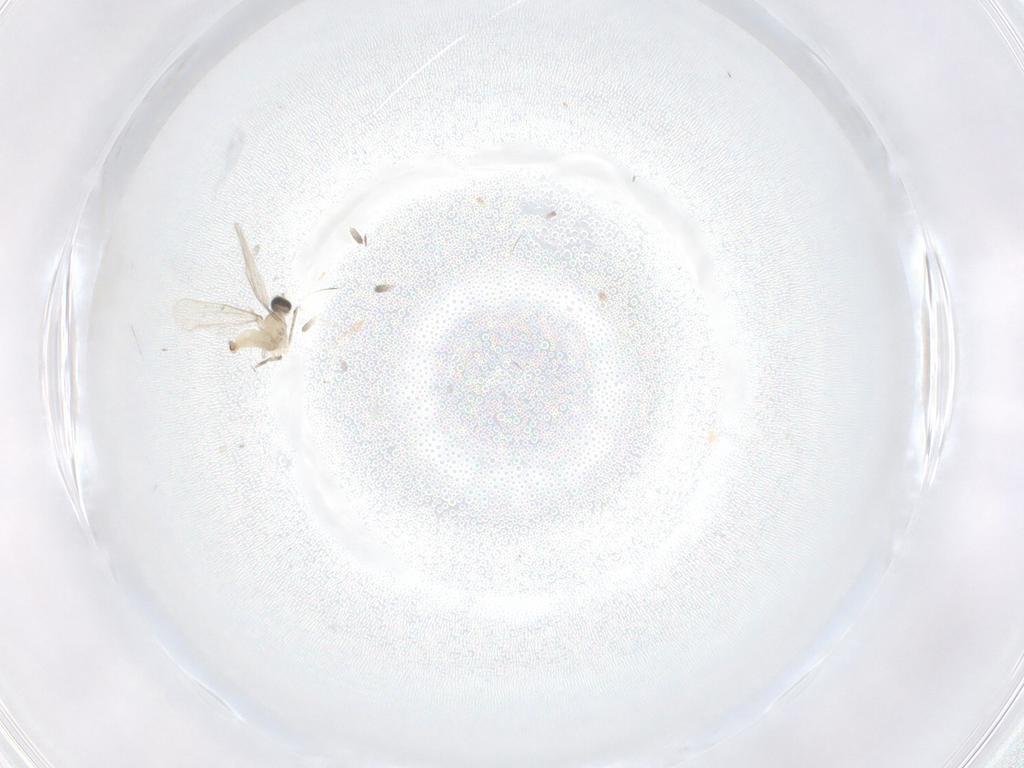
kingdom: Animalia
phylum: Arthropoda
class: Insecta
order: Diptera
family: Cecidomyiidae
